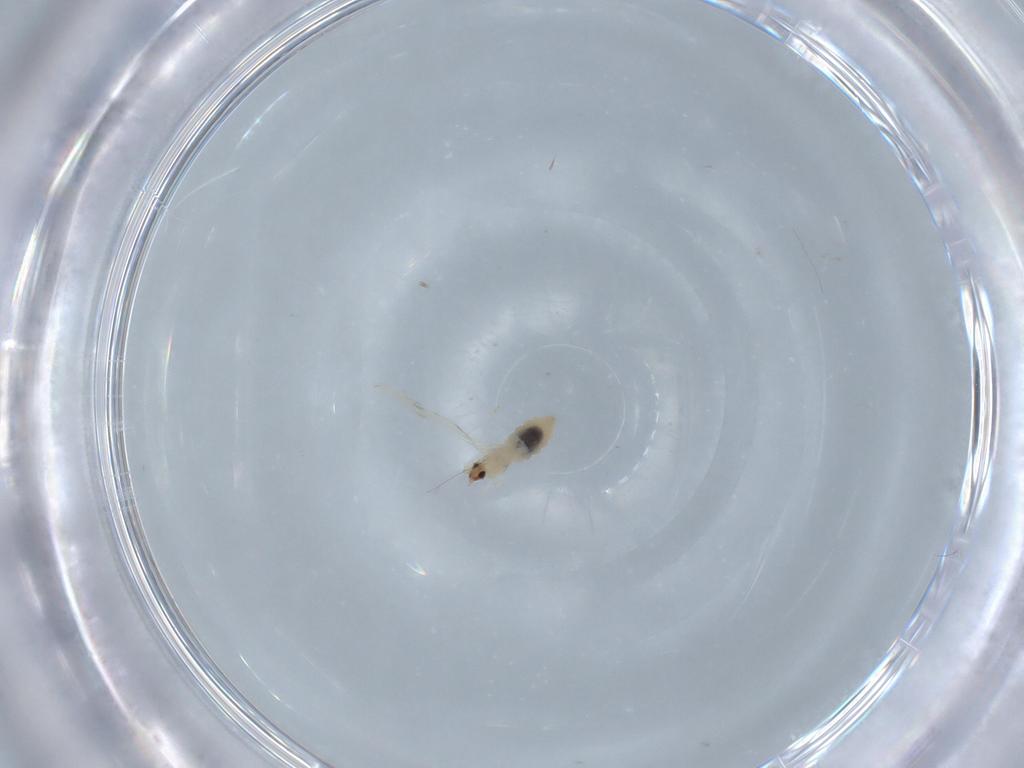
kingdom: Animalia
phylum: Arthropoda
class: Insecta
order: Diptera
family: Cecidomyiidae
